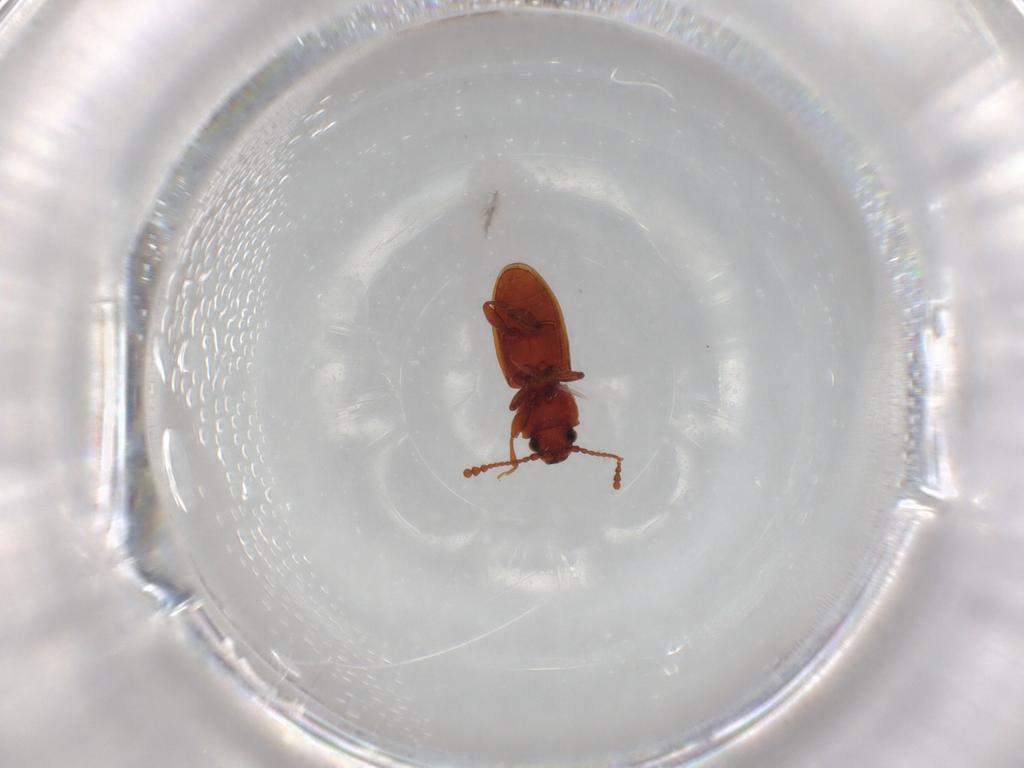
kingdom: Animalia
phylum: Arthropoda
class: Insecta
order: Coleoptera
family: Silvanidae
